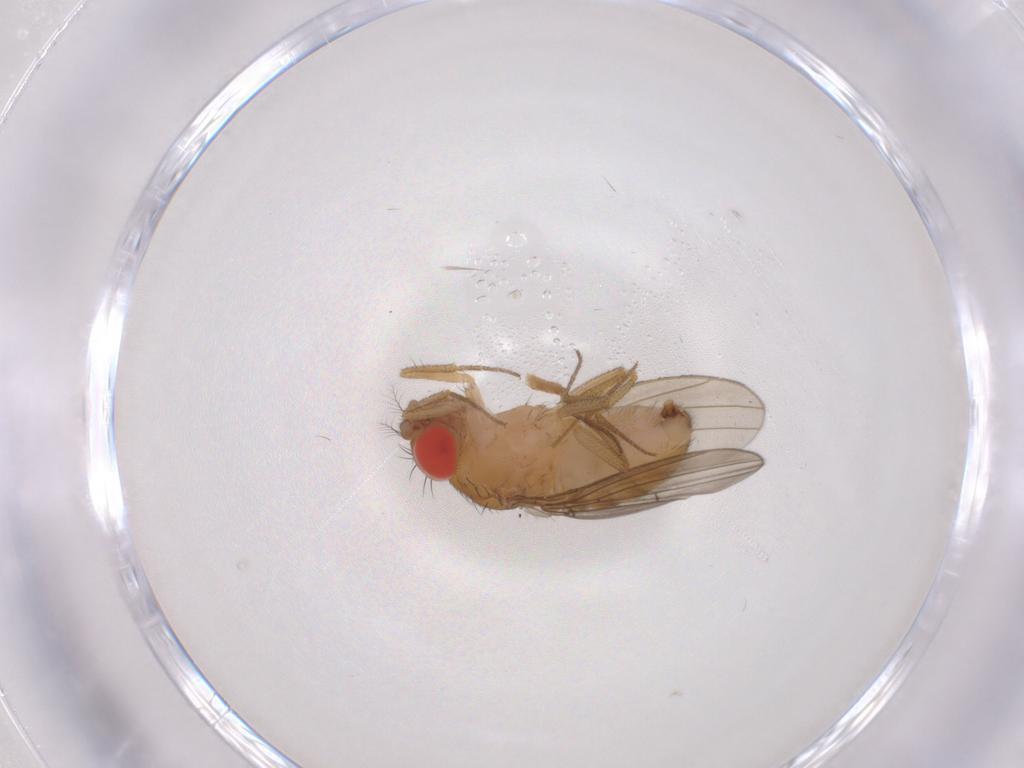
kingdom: Animalia
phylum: Arthropoda
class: Insecta
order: Diptera
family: Drosophilidae
